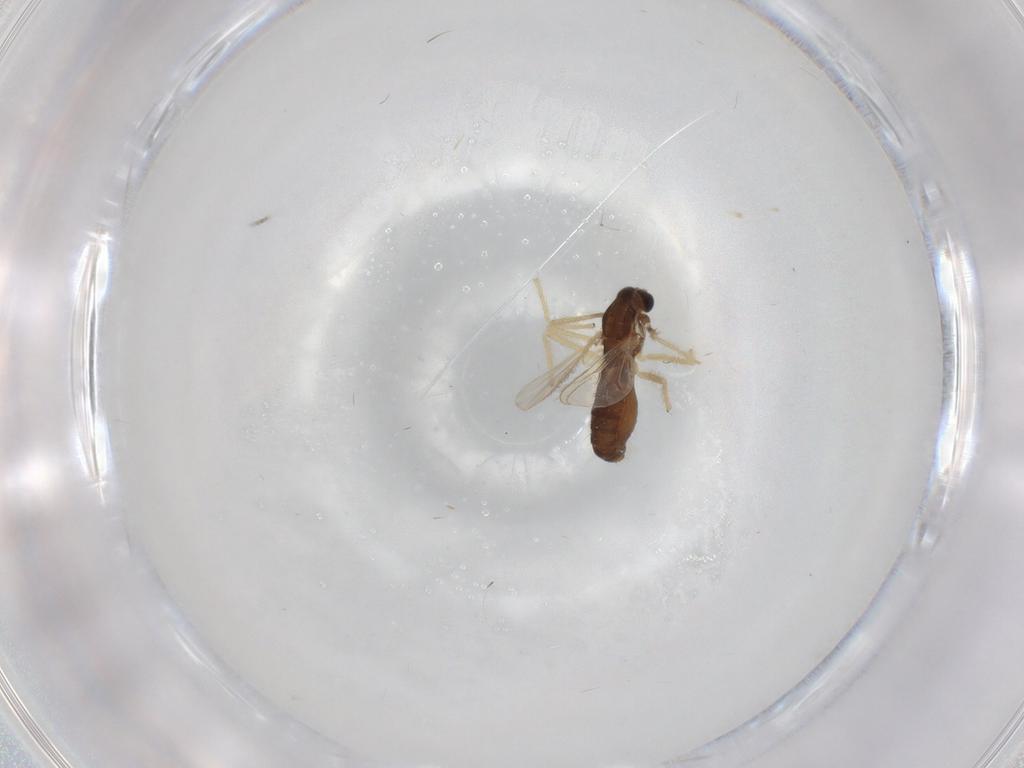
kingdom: Animalia
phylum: Arthropoda
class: Insecta
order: Diptera
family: Chironomidae
